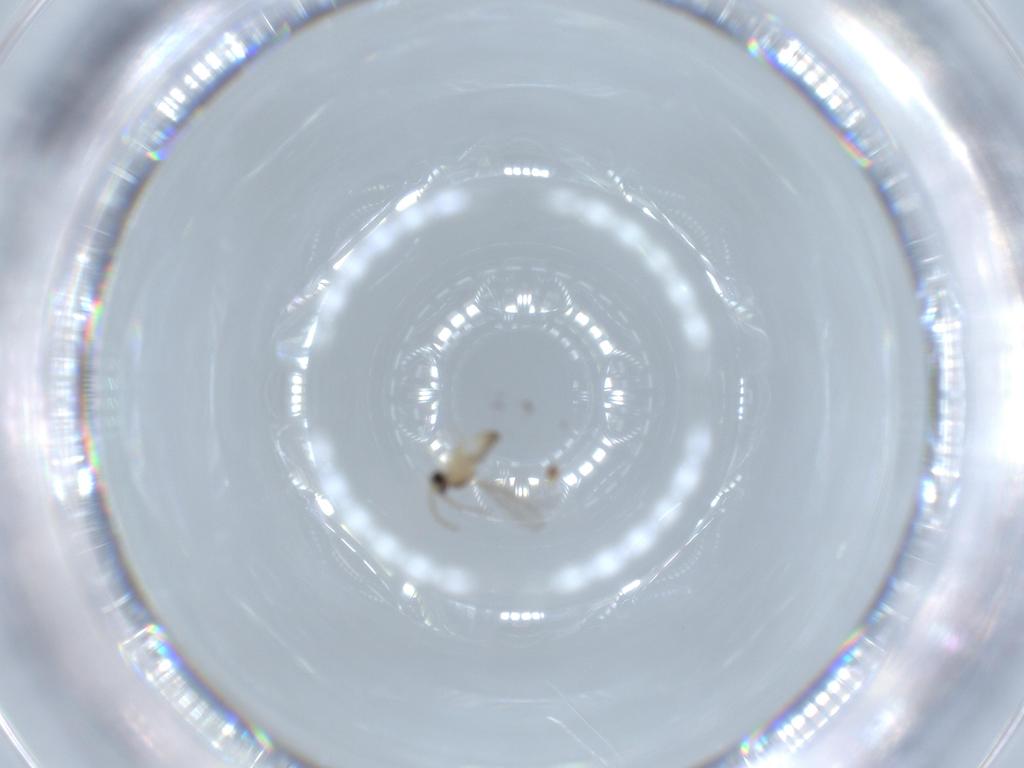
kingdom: Animalia
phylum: Arthropoda
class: Insecta
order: Diptera
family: Cecidomyiidae
